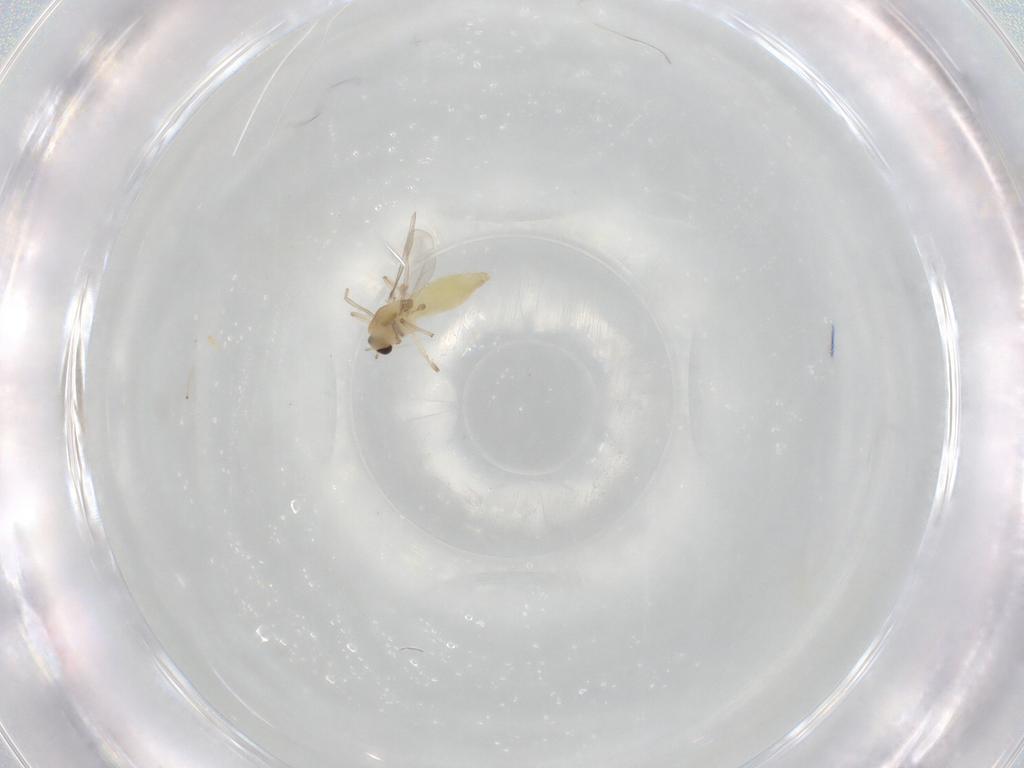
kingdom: Animalia
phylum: Arthropoda
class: Insecta
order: Diptera
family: Chironomidae
